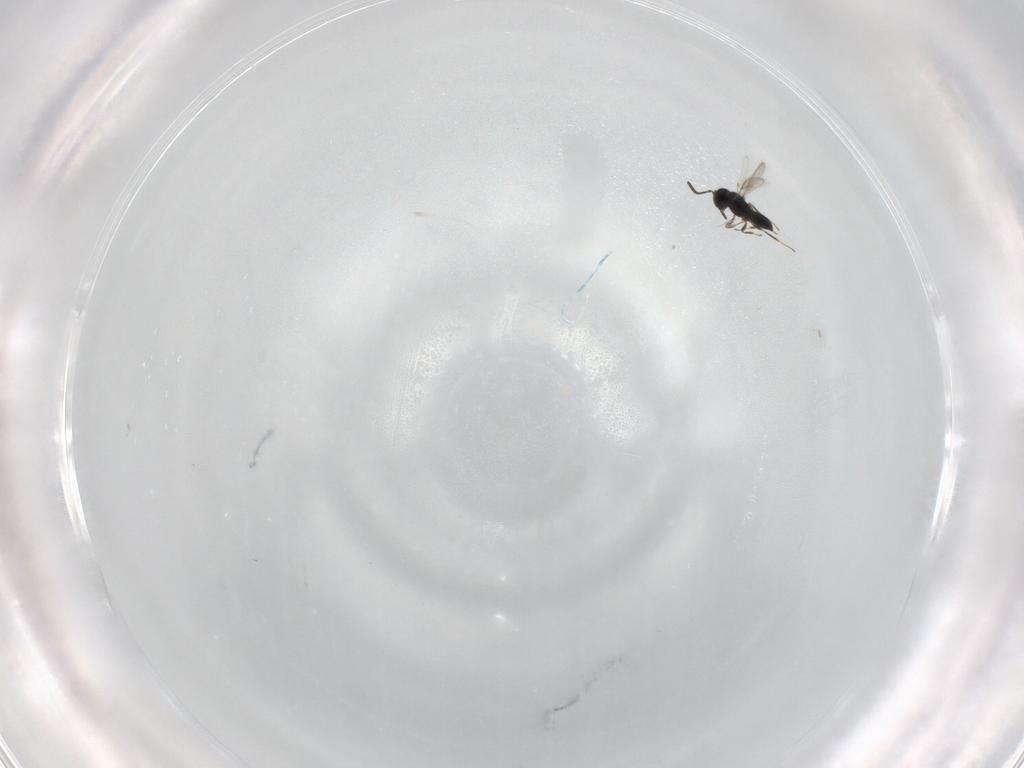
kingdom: Animalia
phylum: Arthropoda
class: Insecta
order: Hymenoptera
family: Scelionidae
